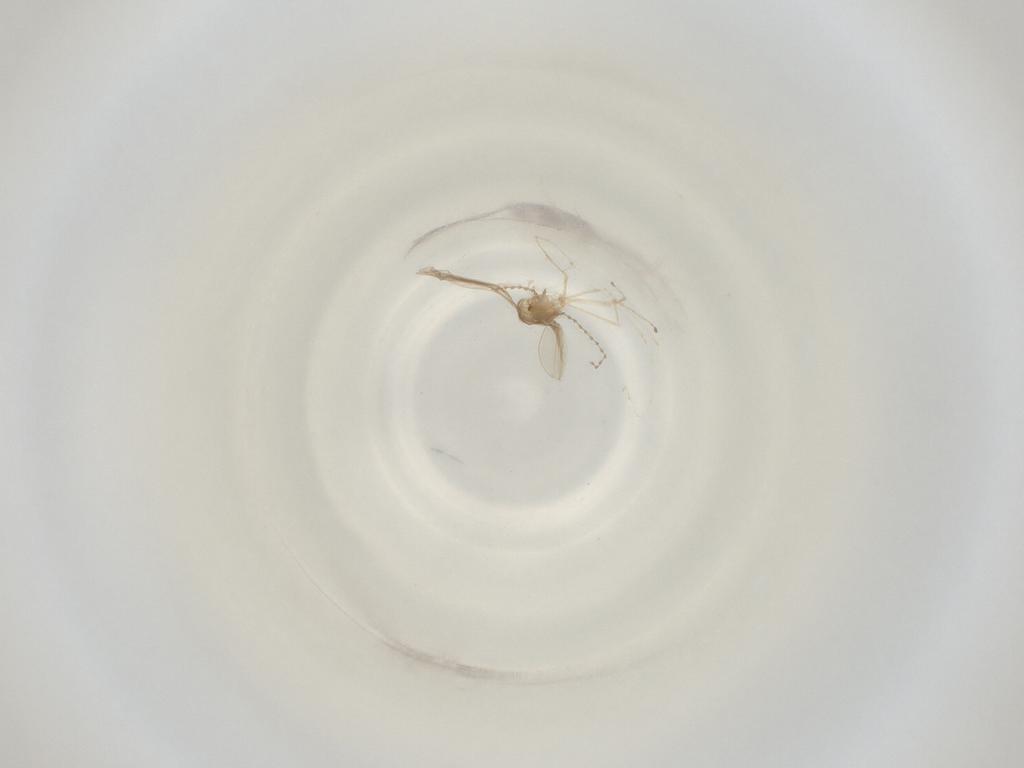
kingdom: Animalia
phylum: Arthropoda
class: Insecta
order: Diptera
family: Cecidomyiidae
